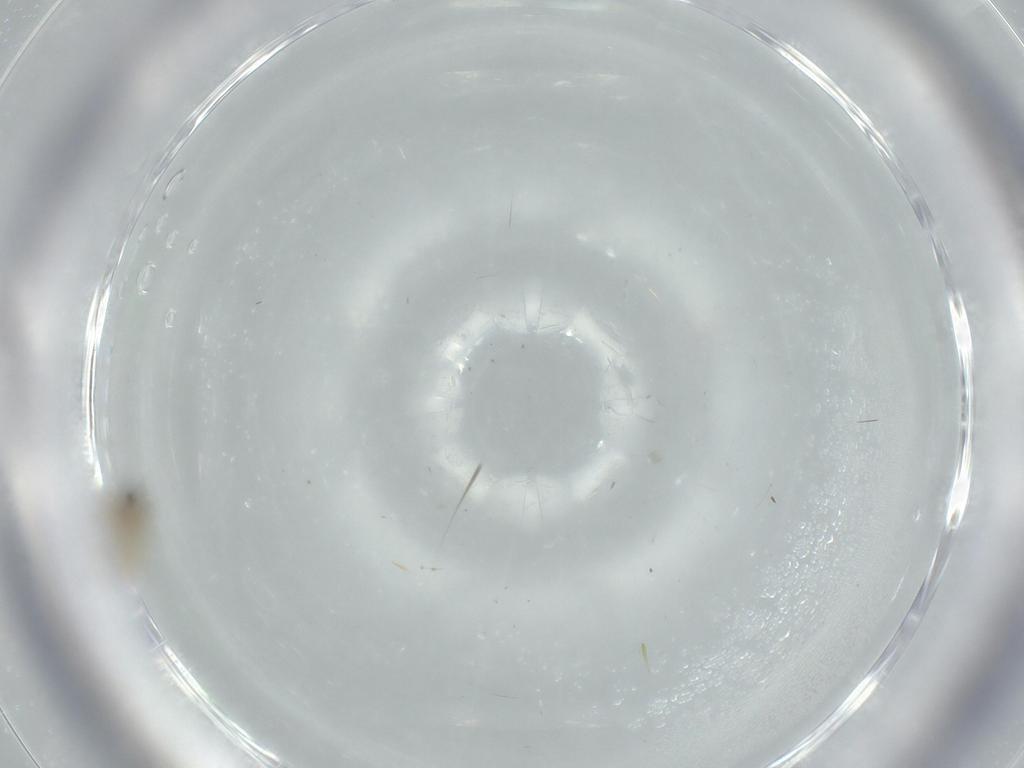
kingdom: Animalia
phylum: Arthropoda
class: Insecta
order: Diptera
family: Cecidomyiidae
